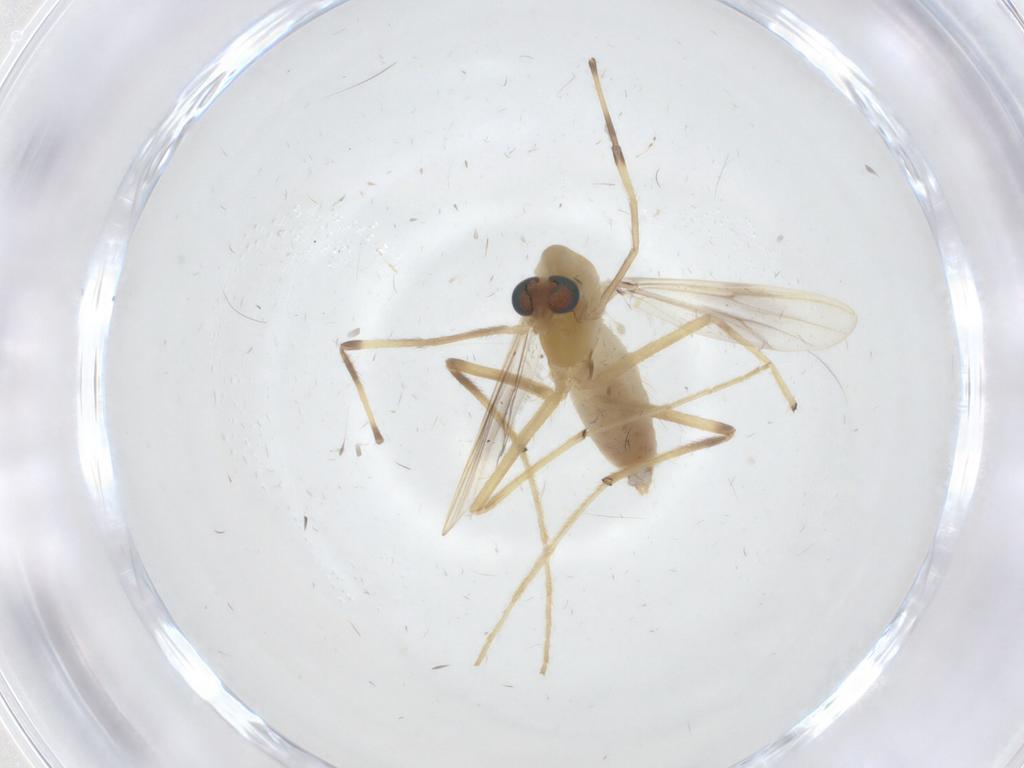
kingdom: Animalia
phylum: Arthropoda
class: Insecta
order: Diptera
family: Chironomidae
